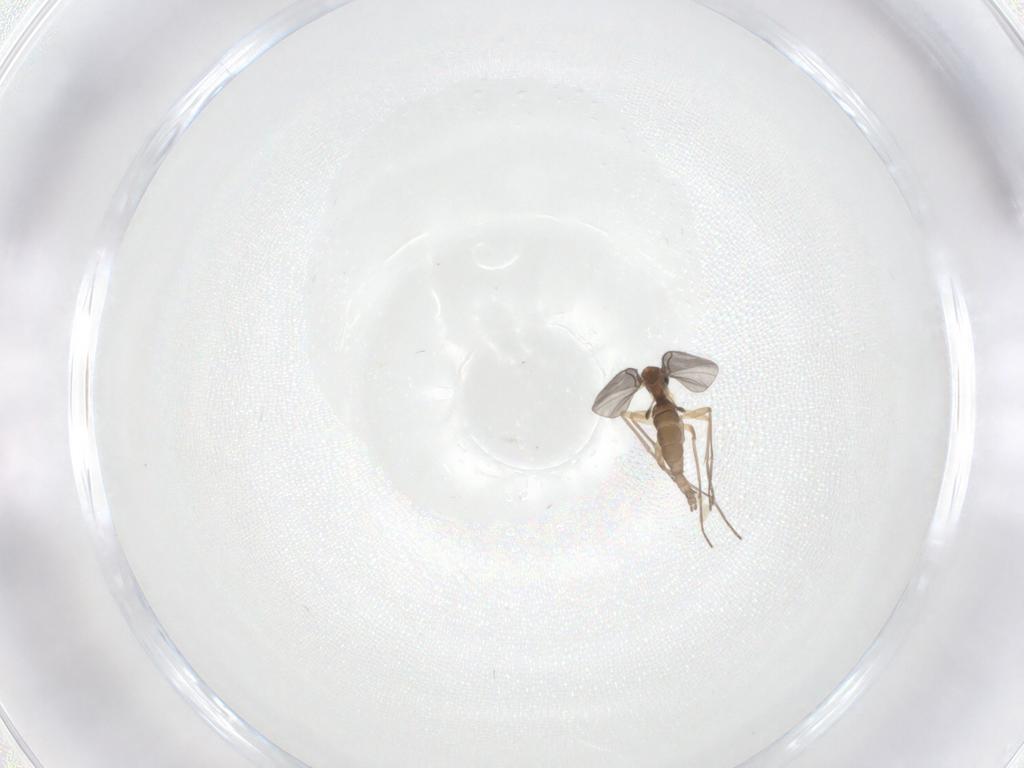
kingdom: Animalia
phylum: Arthropoda
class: Insecta
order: Diptera
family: Sciaridae
